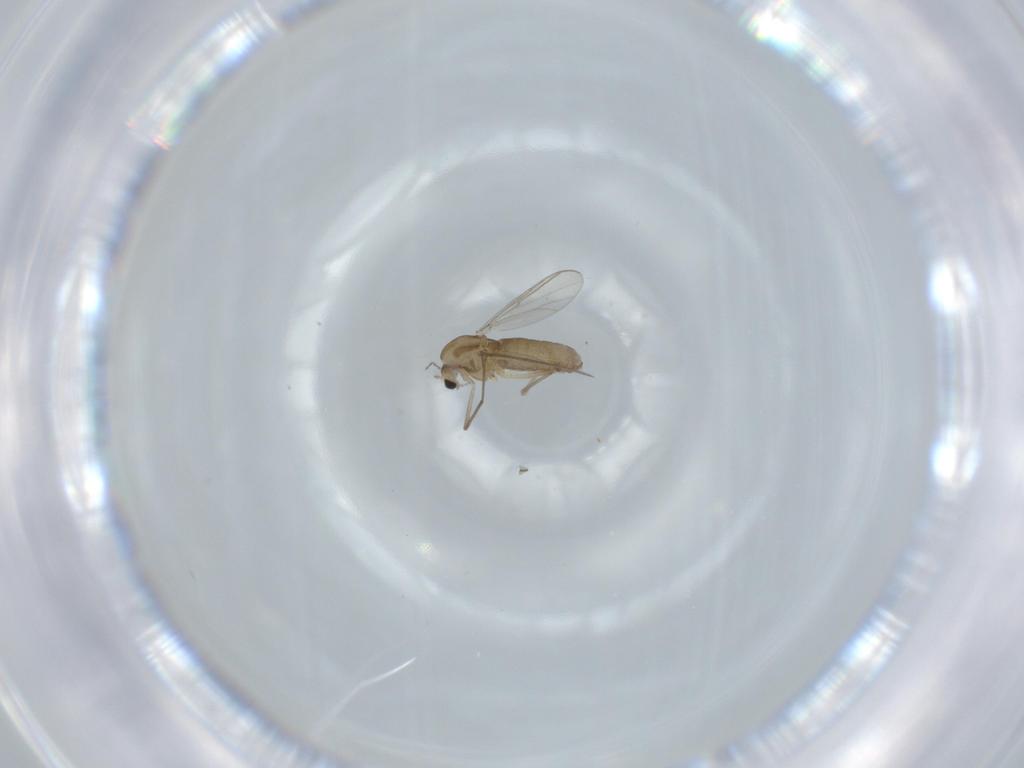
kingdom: Animalia
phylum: Arthropoda
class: Insecta
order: Diptera
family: Chironomidae
